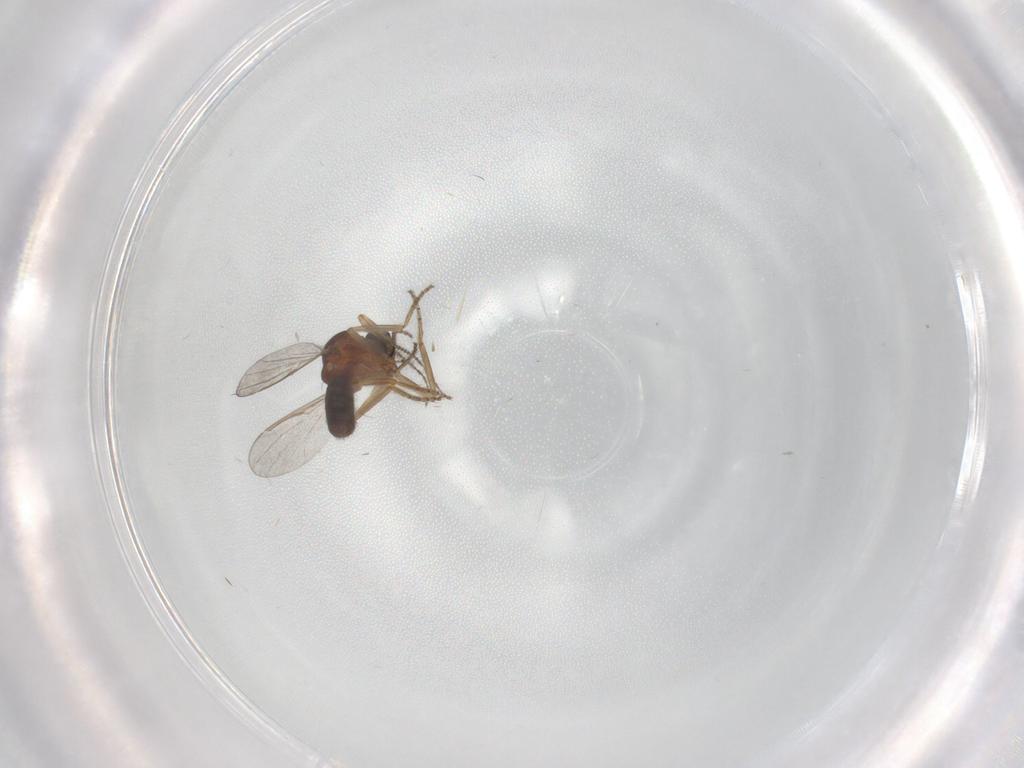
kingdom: Animalia
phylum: Arthropoda
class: Insecta
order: Diptera
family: Ceratopogonidae
